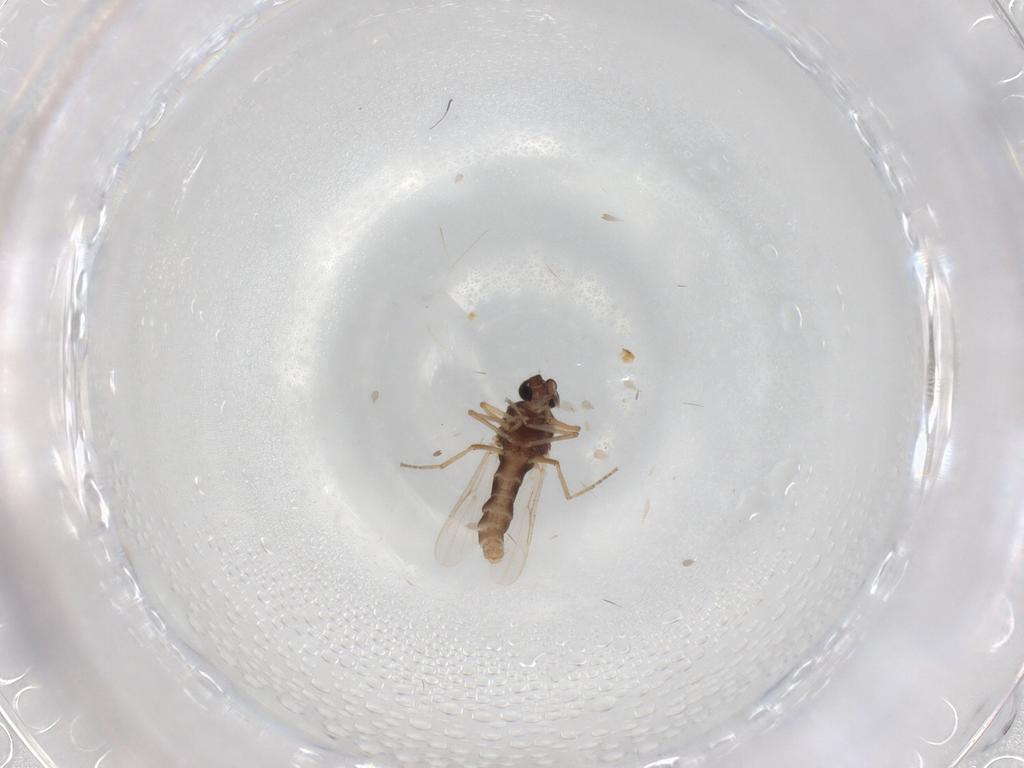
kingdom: Animalia
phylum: Arthropoda
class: Insecta
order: Diptera
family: Ceratopogonidae
